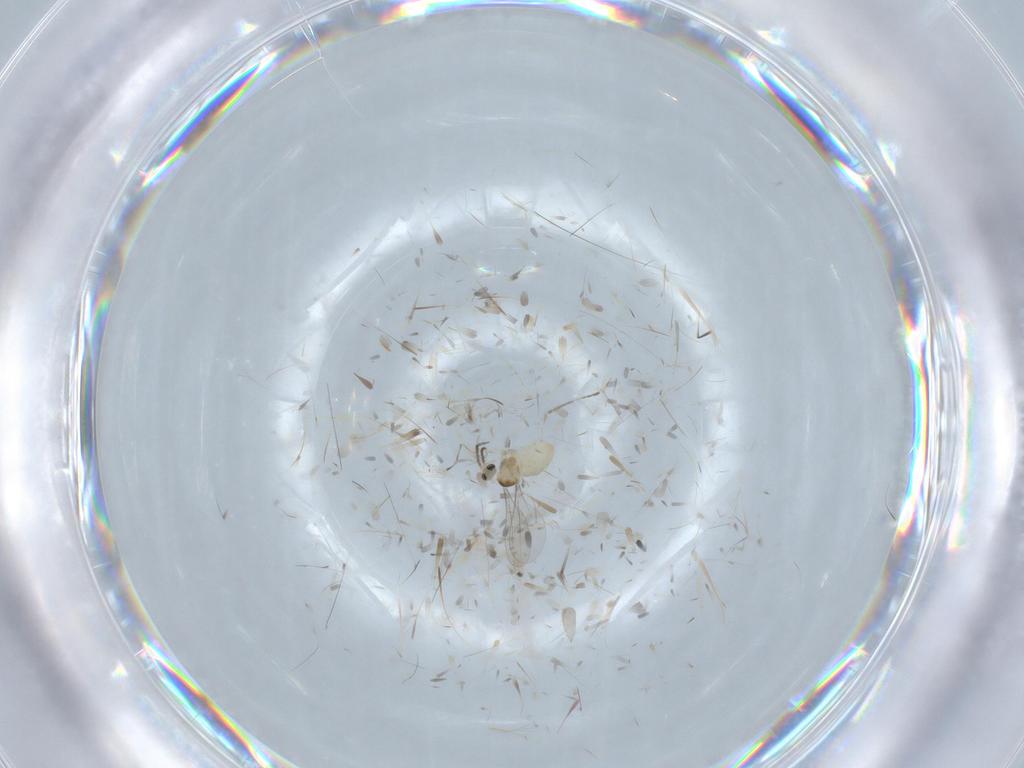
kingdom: Animalia
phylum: Arthropoda
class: Insecta
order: Diptera
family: Cecidomyiidae
